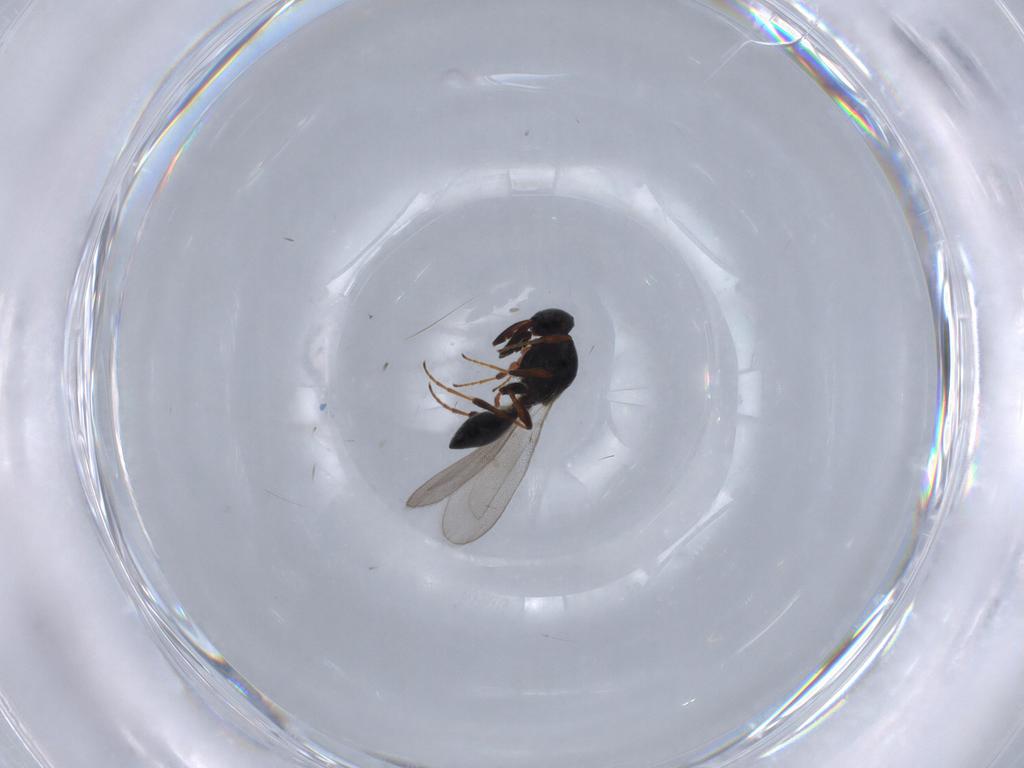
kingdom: Animalia
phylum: Arthropoda
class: Insecta
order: Hymenoptera
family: Platygastridae
